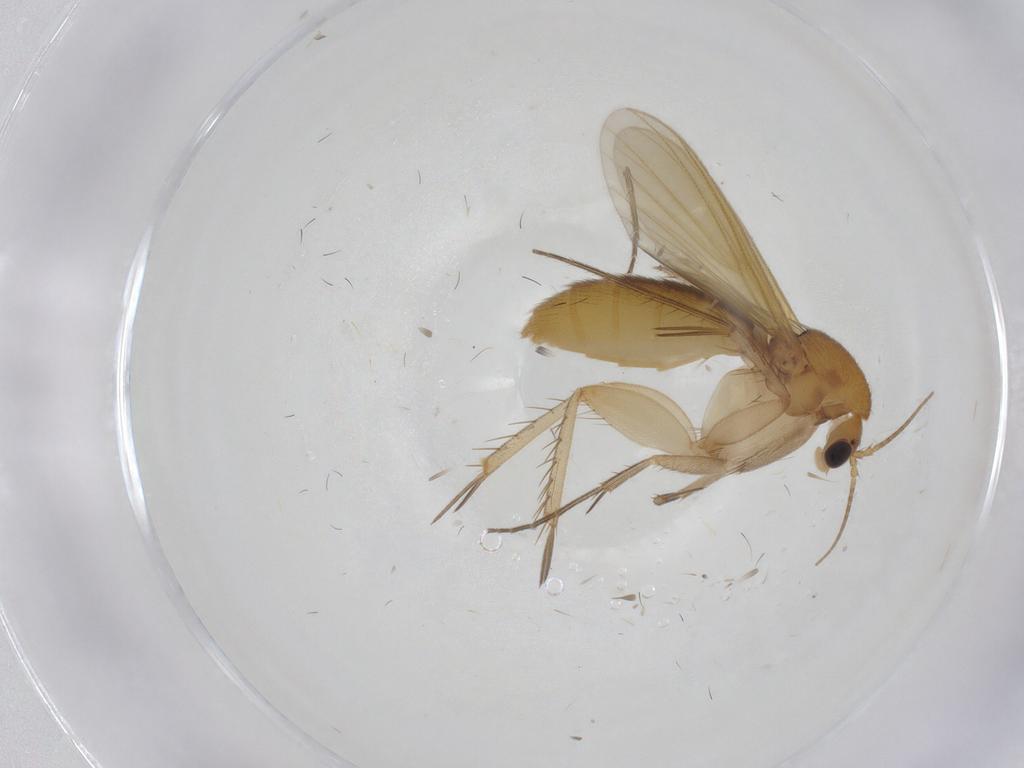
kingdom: Animalia
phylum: Arthropoda
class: Insecta
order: Diptera
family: Mycetophilidae
